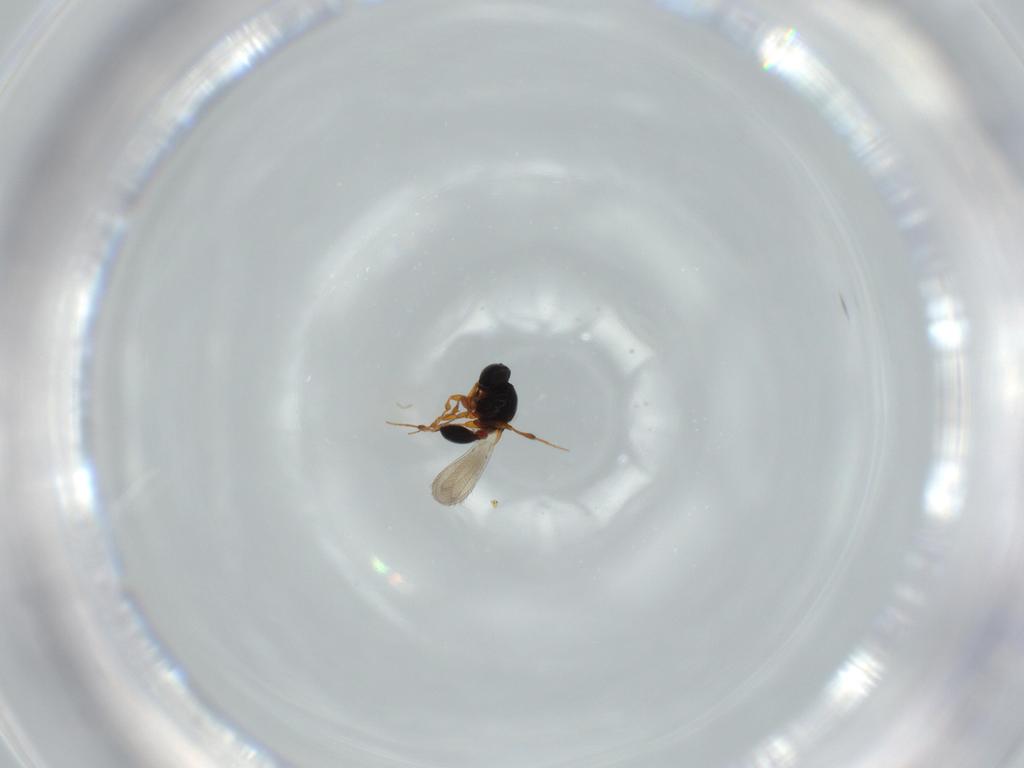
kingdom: Animalia
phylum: Arthropoda
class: Insecta
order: Hymenoptera
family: Platygastridae
